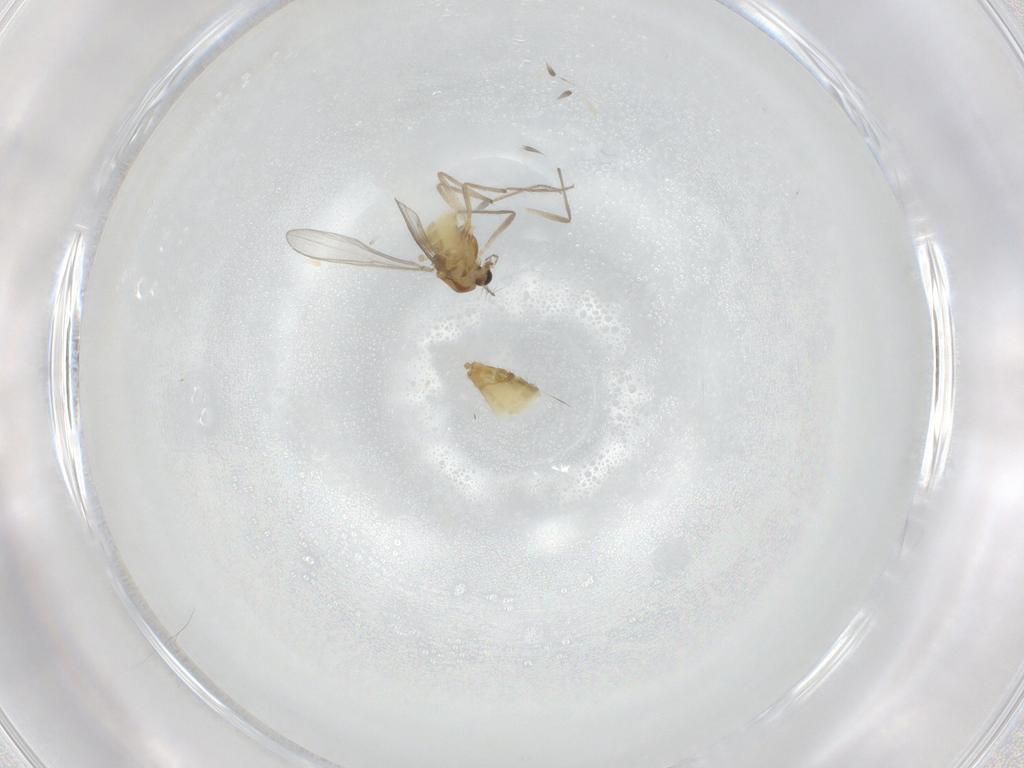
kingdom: Animalia
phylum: Arthropoda
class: Insecta
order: Diptera
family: Chironomidae
